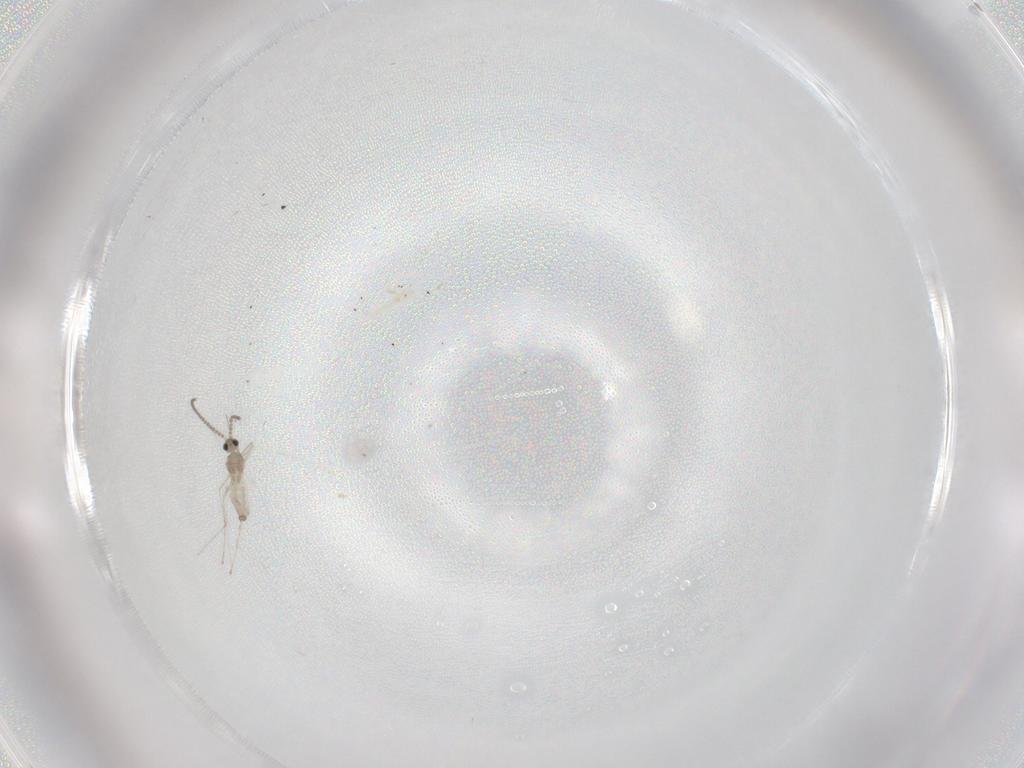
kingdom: Animalia
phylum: Arthropoda
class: Insecta
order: Diptera
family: Cecidomyiidae
